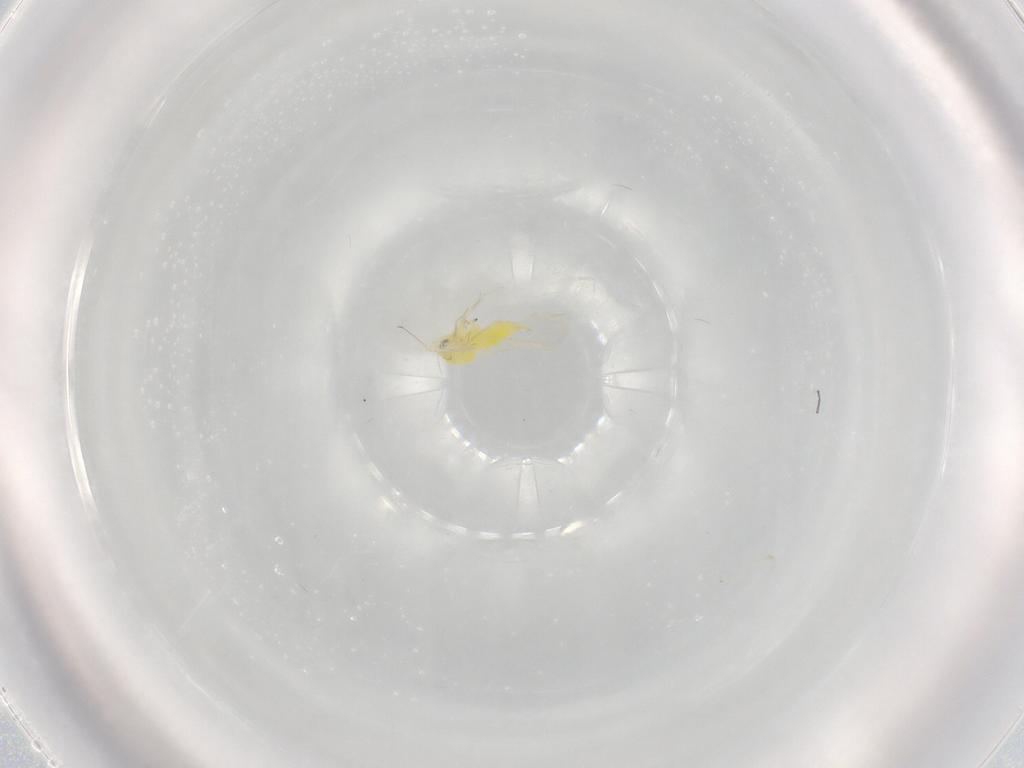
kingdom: Animalia
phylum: Arthropoda
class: Insecta
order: Hemiptera
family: Aleyrodidae
